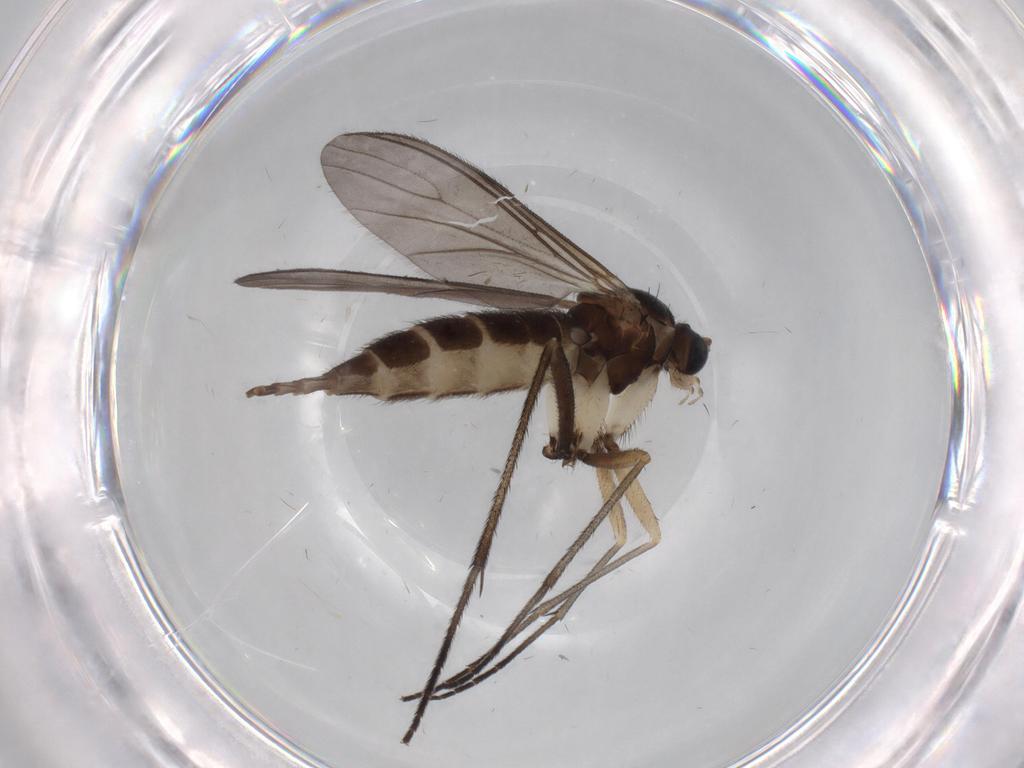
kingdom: Animalia
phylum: Arthropoda
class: Insecta
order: Diptera
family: Sciaridae
